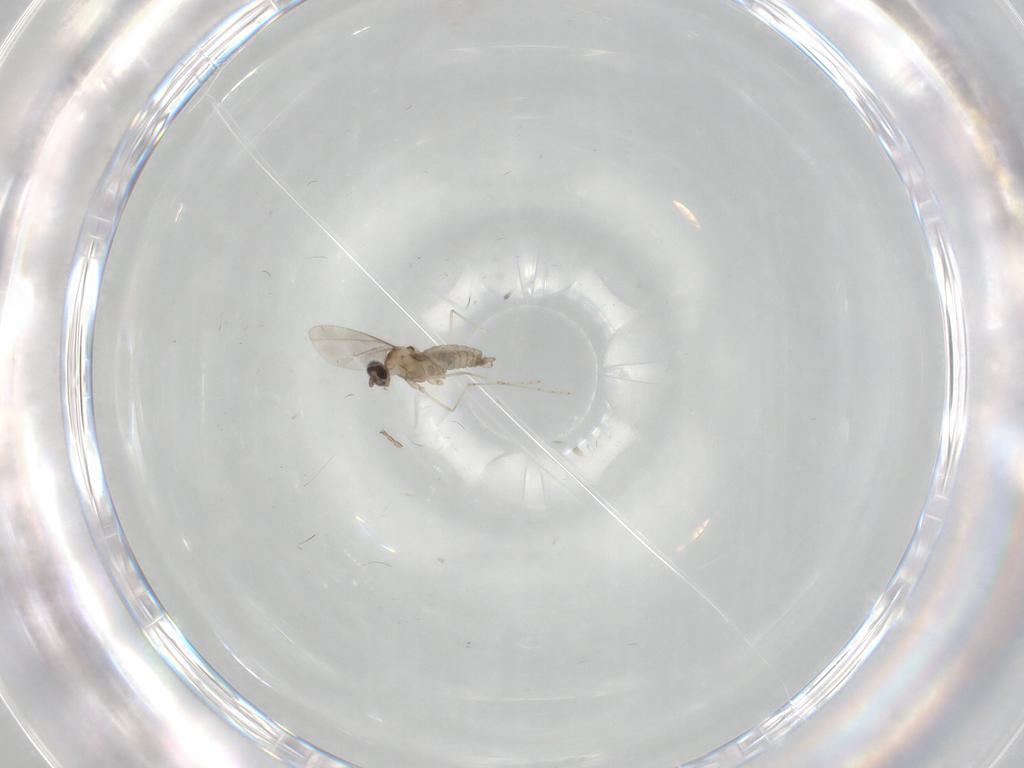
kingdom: Animalia
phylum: Arthropoda
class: Insecta
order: Diptera
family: Cecidomyiidae
